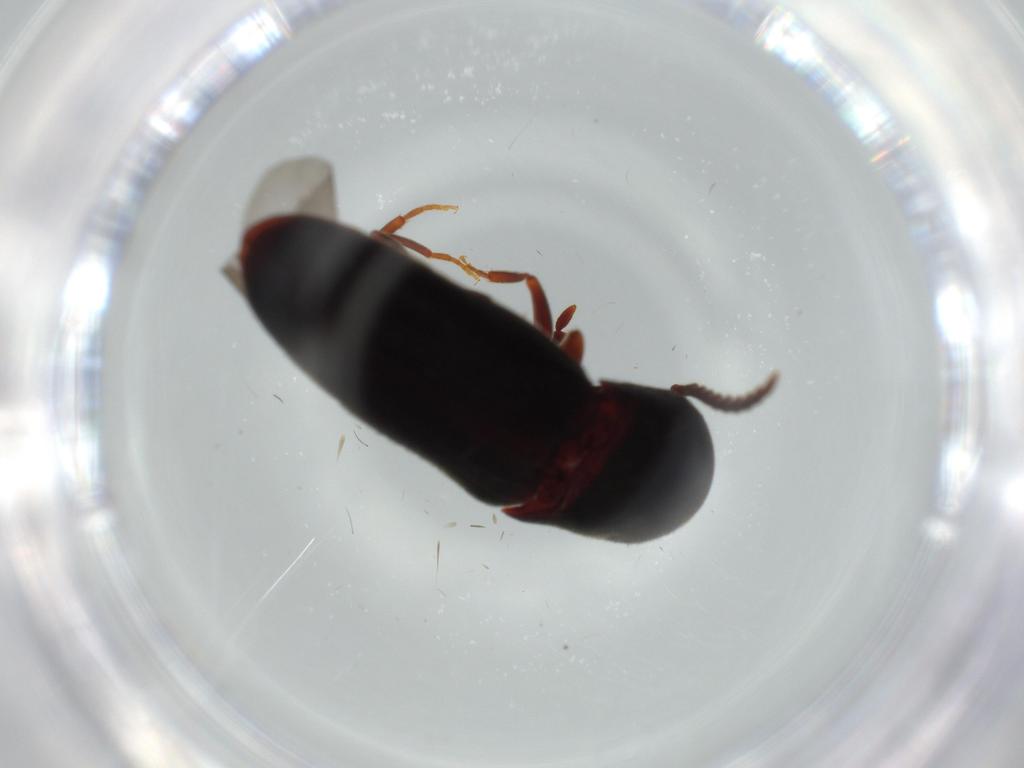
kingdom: Animalia
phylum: Arthropoda
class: Insecta
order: Coleoptera
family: Eucnemidae
